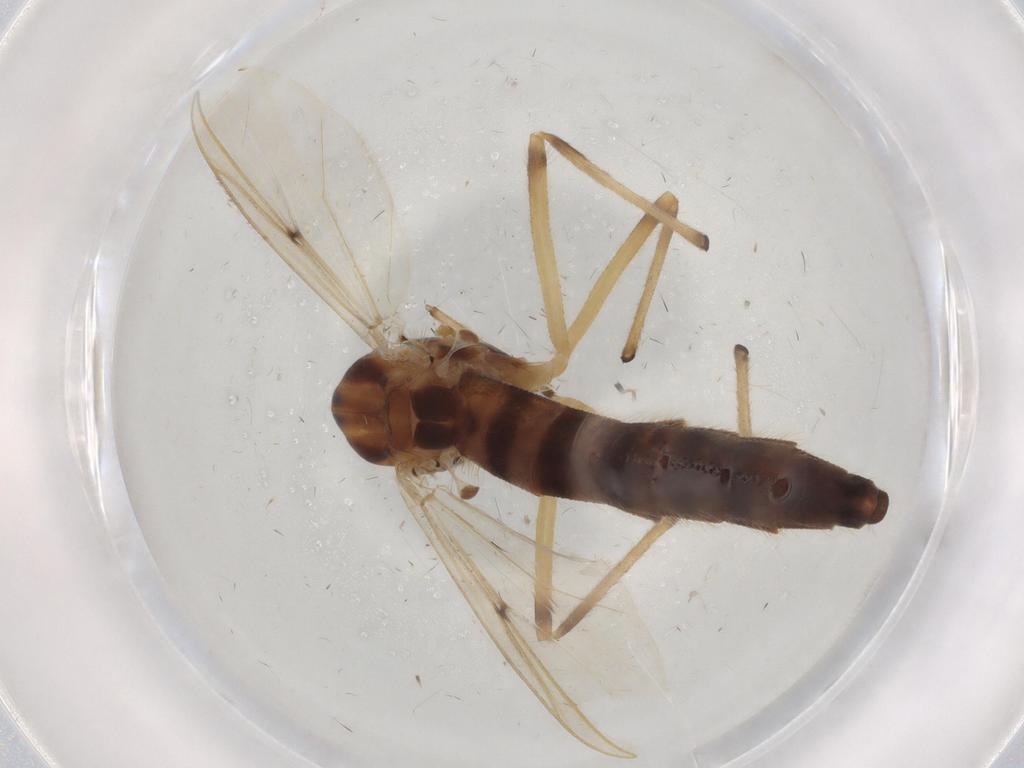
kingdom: Animalia
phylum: Arthropoda
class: Insecta
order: Diptera
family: Chironomidae
